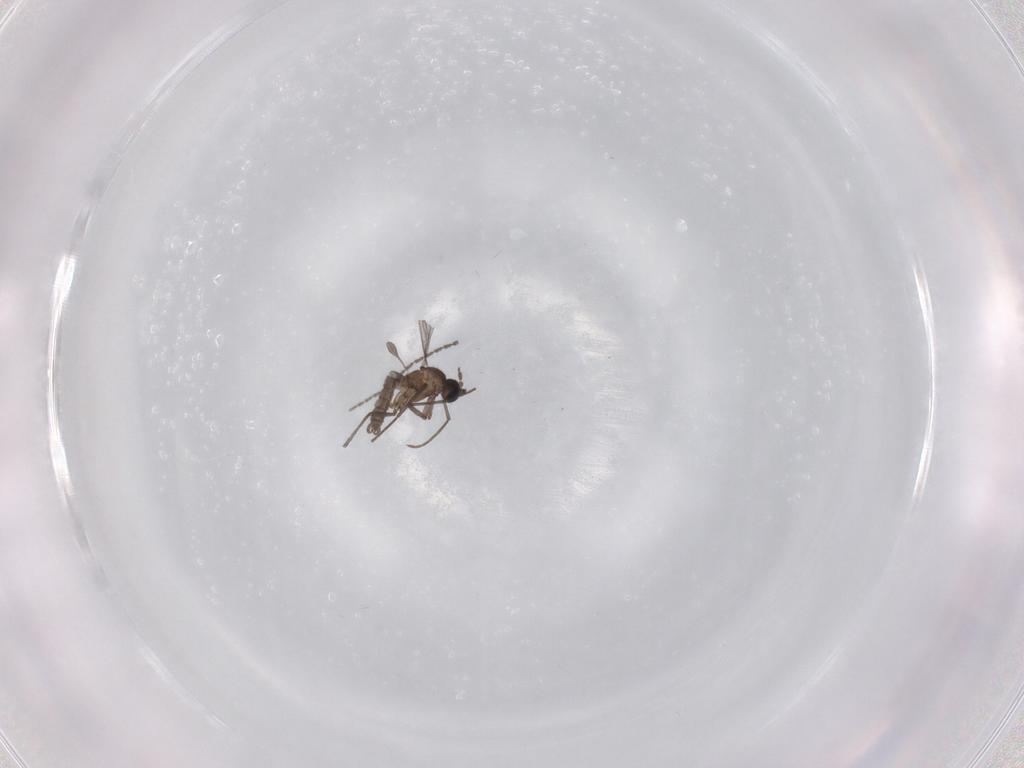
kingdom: Animalia
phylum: Arthropoda
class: Insecta
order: Diptera
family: Sciaridae
